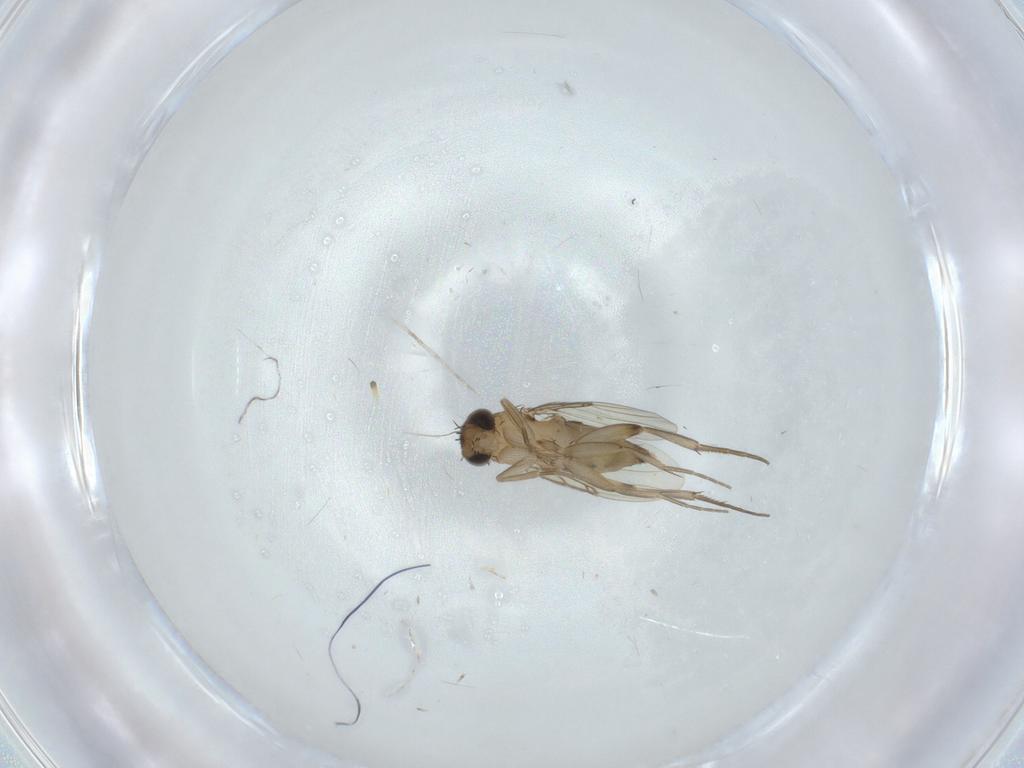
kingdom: Animalia
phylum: Arthropoda
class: Insecta
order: Diptera
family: Phoridae
